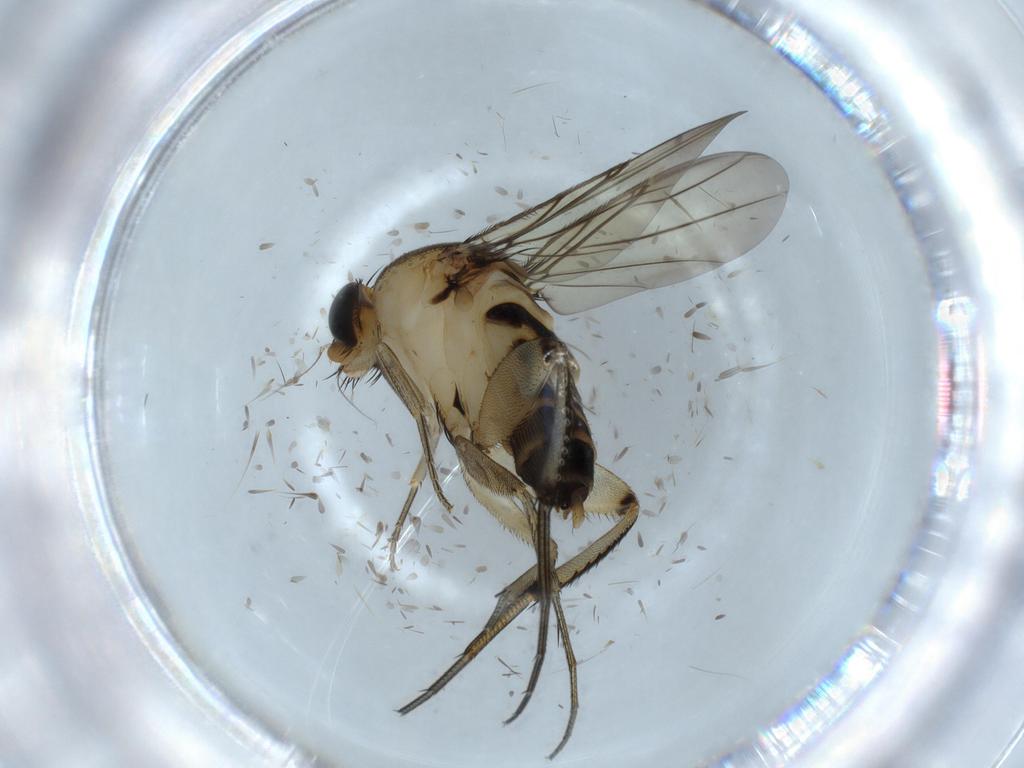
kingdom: Animalia
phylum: Arthropoda
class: Insecta
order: Diptera
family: Phoridae
